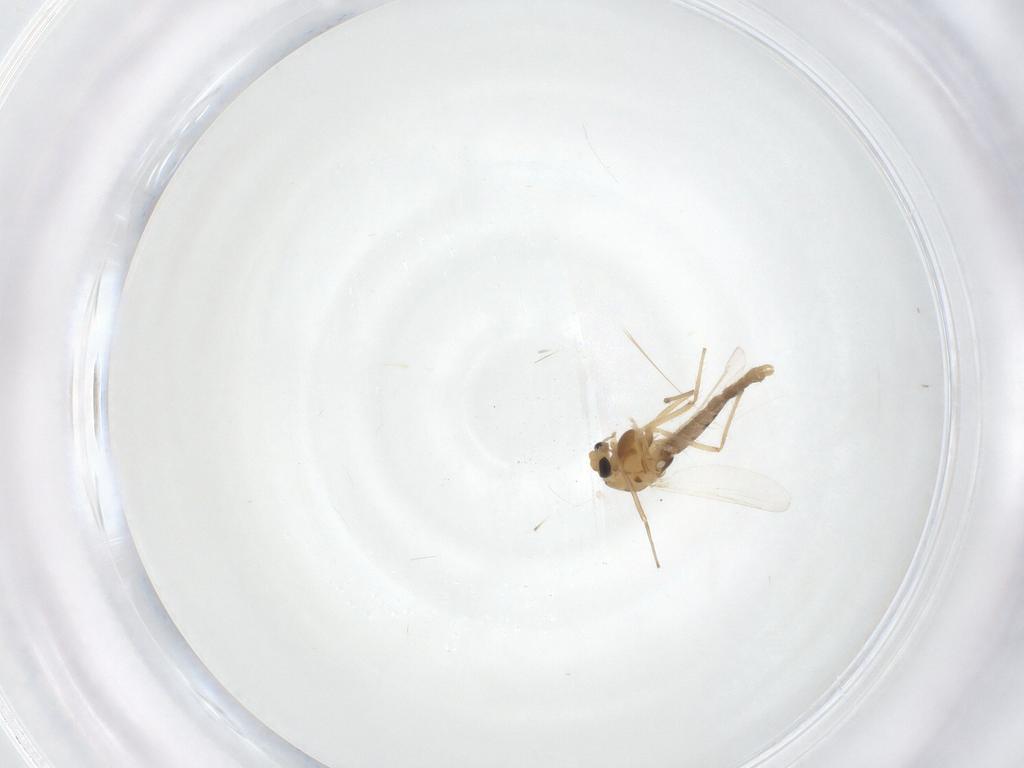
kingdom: Animalia
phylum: Arthropoda
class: Insecta
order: Diptera
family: Chironomidae
